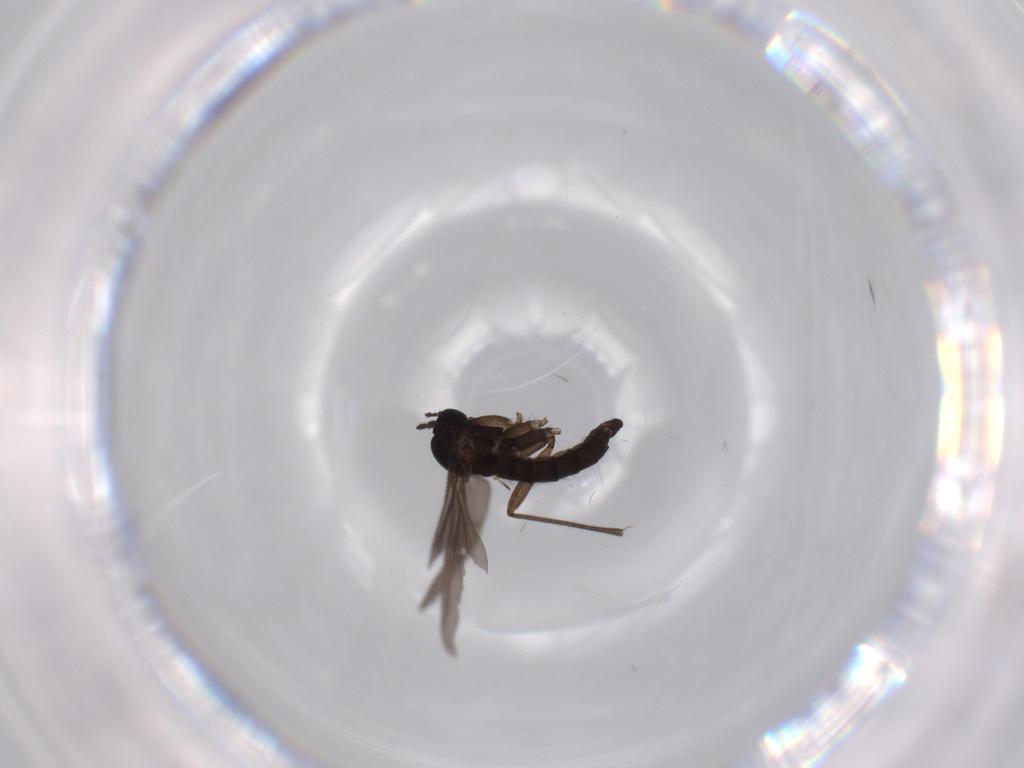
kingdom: Animalia
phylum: Arthropoda
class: Insecta
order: Diptera
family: Sciaridae
